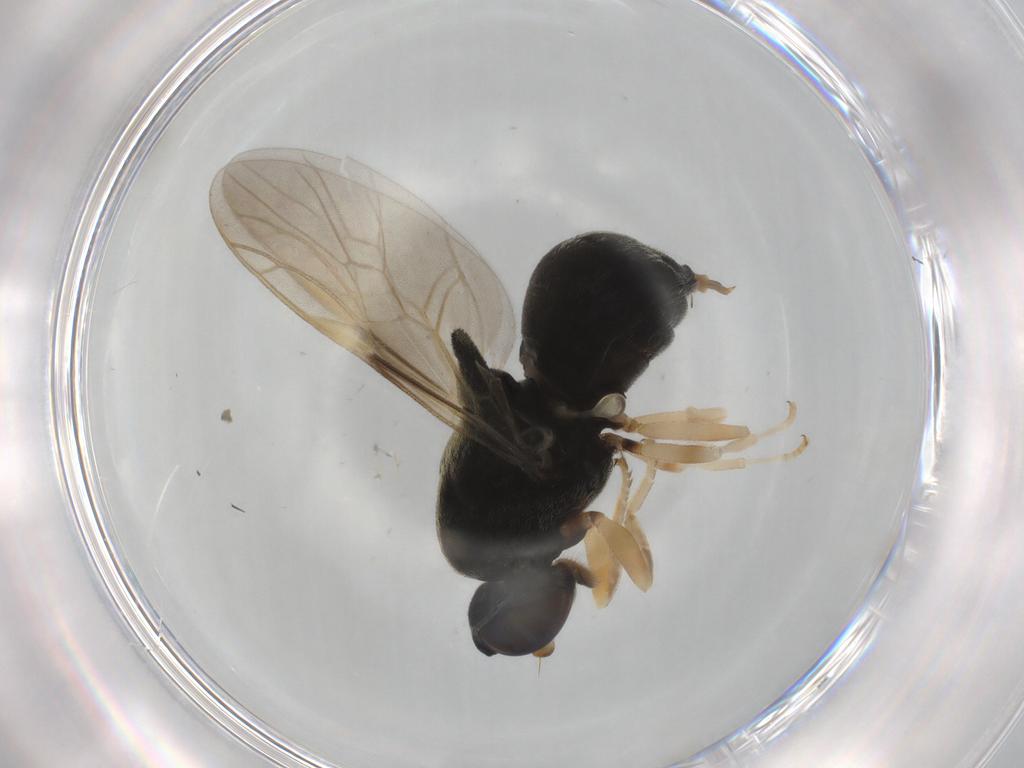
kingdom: Animalia
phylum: Arthropoda
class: Insecta
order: Diptera
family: Stratiomyidae
